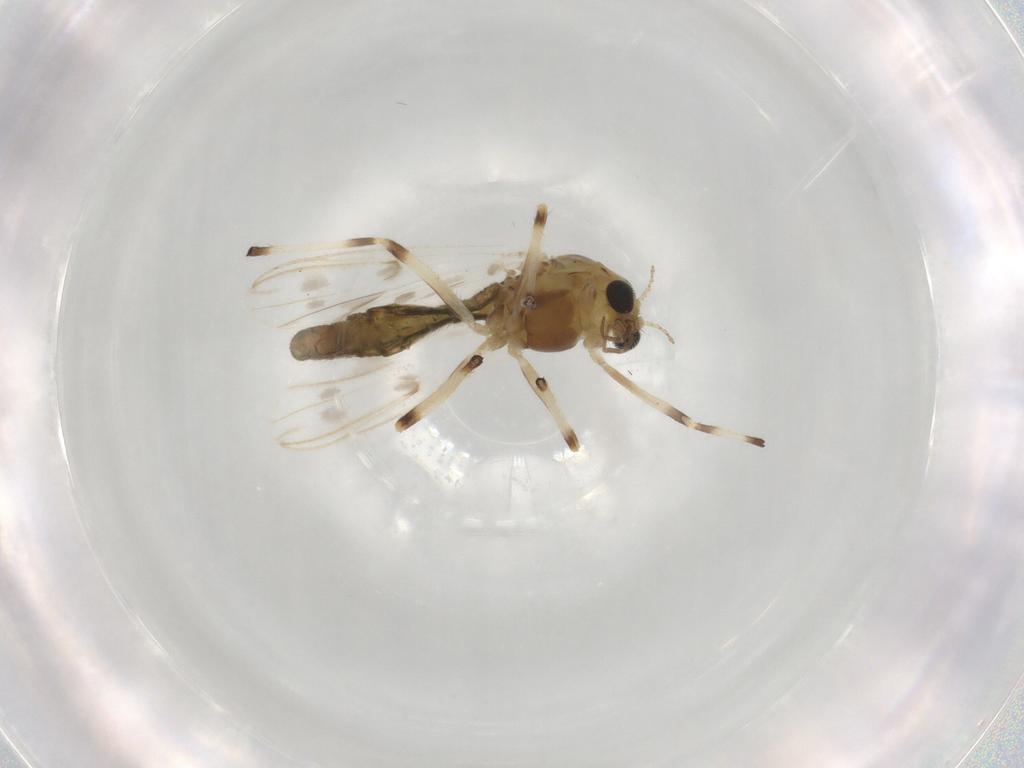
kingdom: Animalia
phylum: Arthropoda
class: Insecta
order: Diptera
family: Chironomidae
